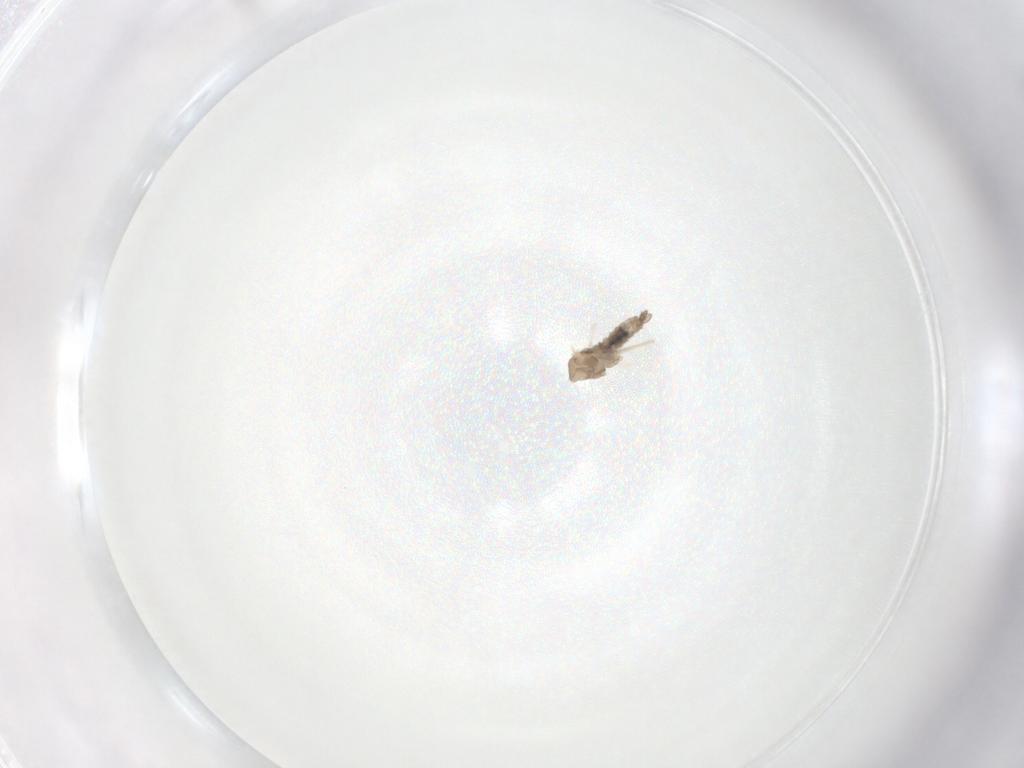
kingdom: Animalia
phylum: Arthropoda
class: Insecta
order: Diptera
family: Cecidomyiidae
